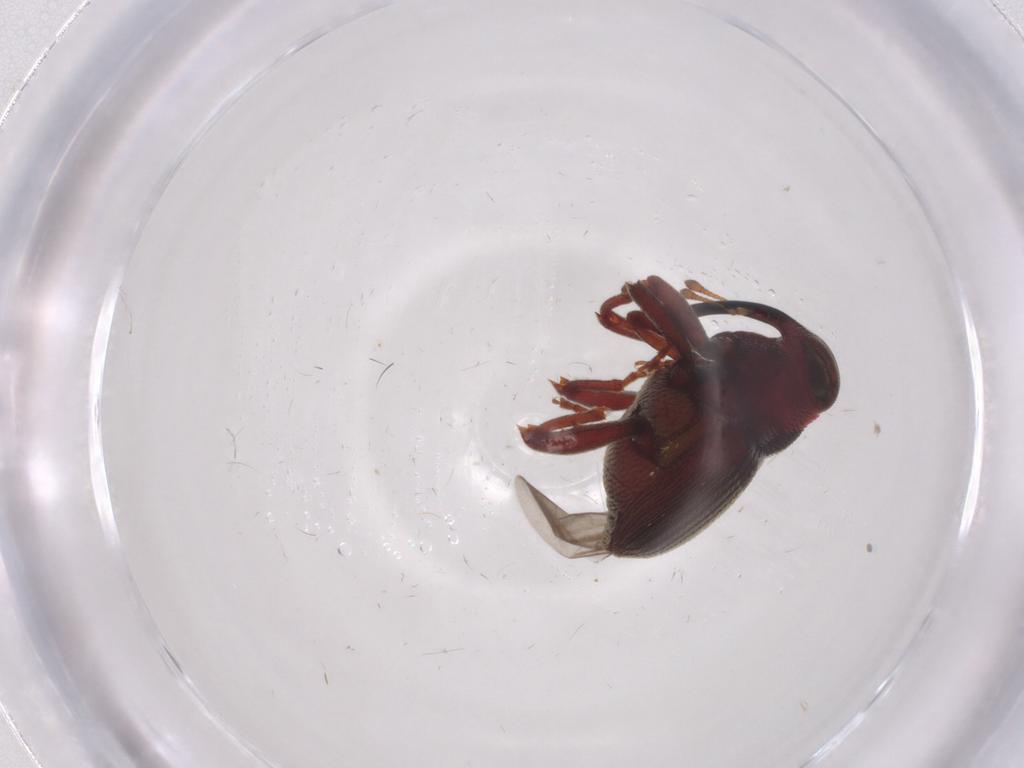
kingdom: Animalia
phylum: Arthropoda
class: Insecta
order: Coleoptera
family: Curculionidae
